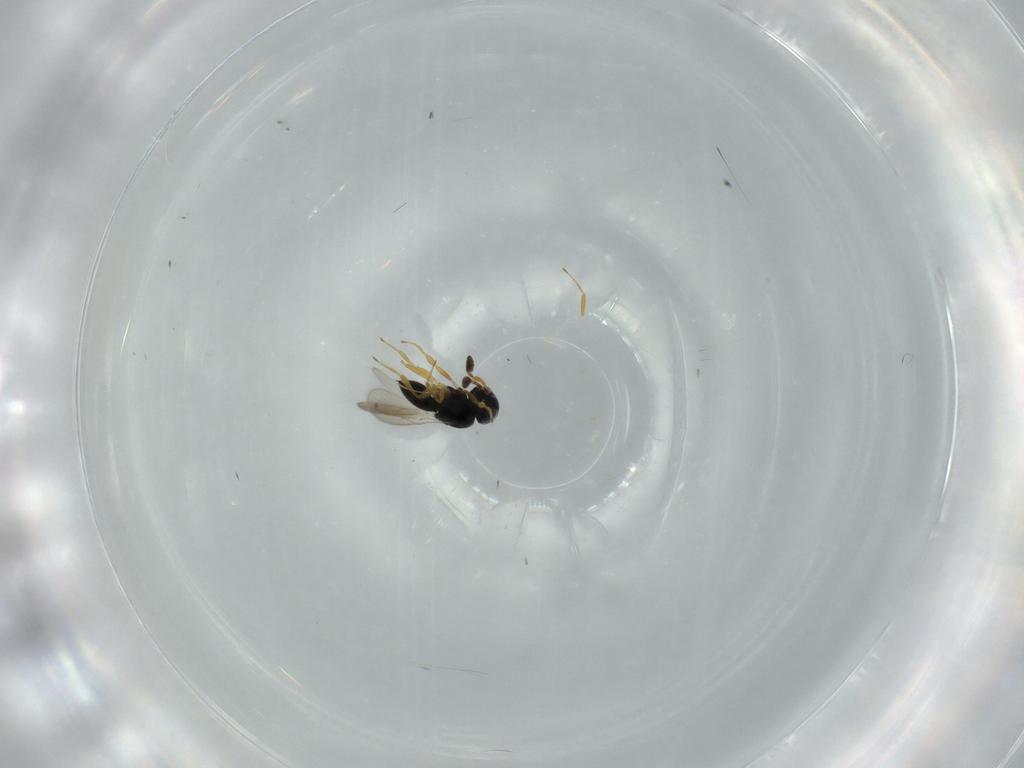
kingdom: Animalia
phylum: Arthropoda
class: Insecta
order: Hymenoptera
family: Scelionidae
